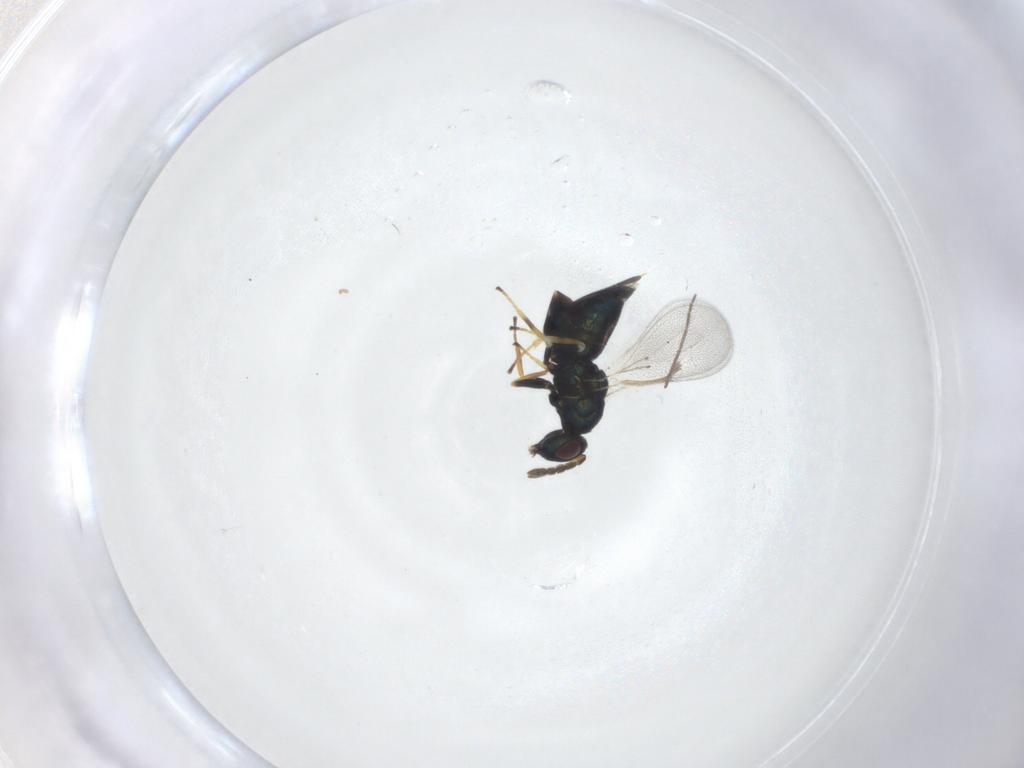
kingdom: Animalia
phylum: Arthropoda
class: Insecta
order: Hymenoptera
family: Eulophidae
